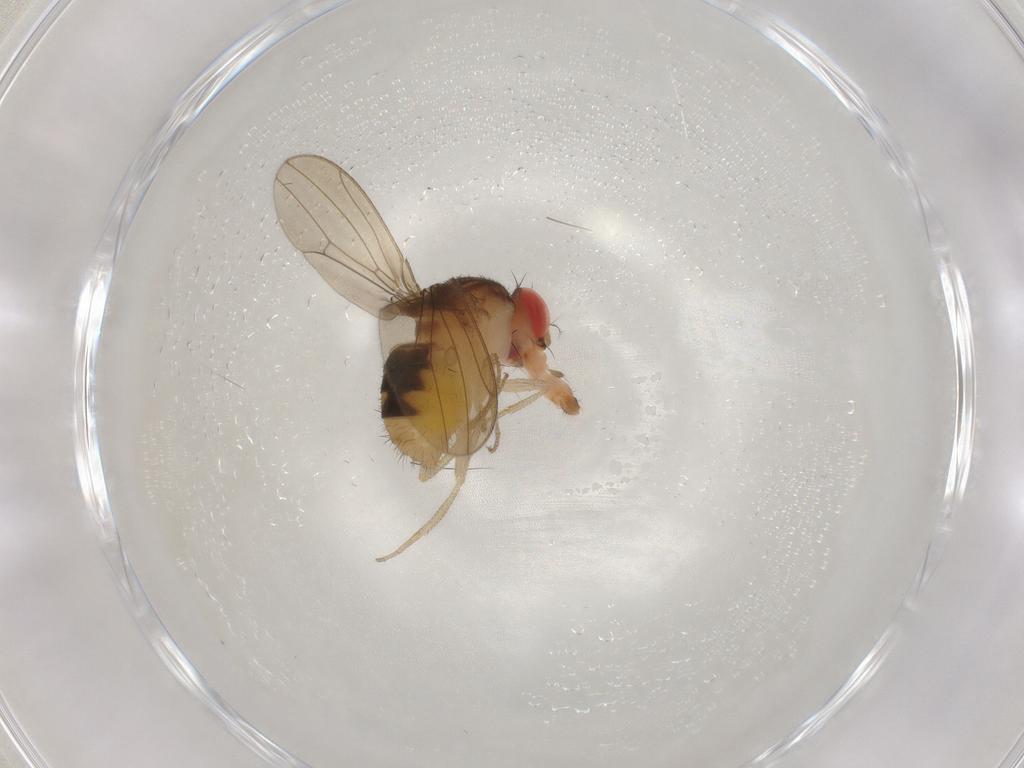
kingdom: Animalia
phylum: Arthropoda
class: Insecta
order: Diptera
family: Drosophilidae
